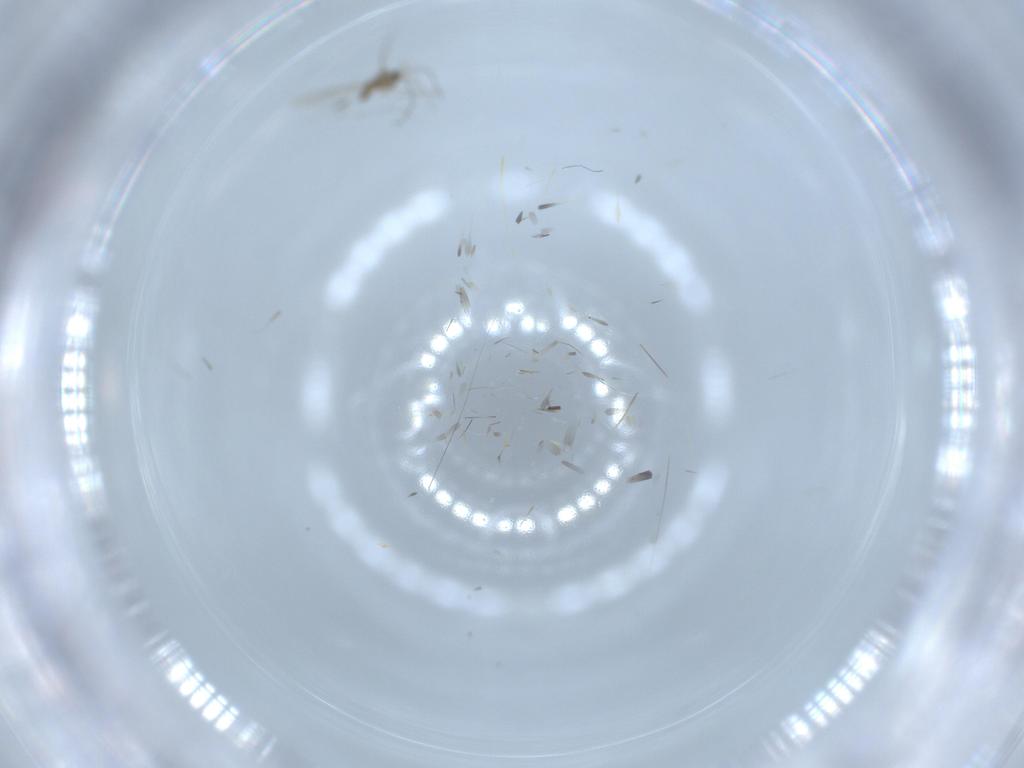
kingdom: Animalia
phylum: Arthropoda
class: Insecta
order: Diptera
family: Cecidomyiidae
